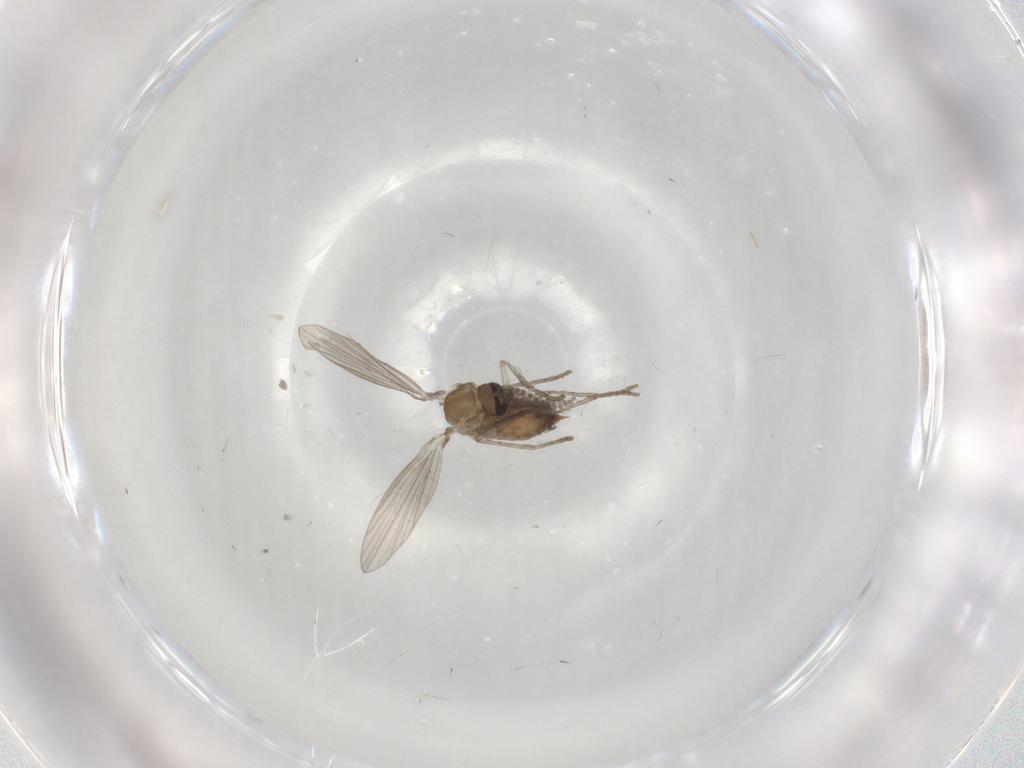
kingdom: Animalia
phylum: Arthropoda
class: Insecta
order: Diptera
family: Psychodidae
